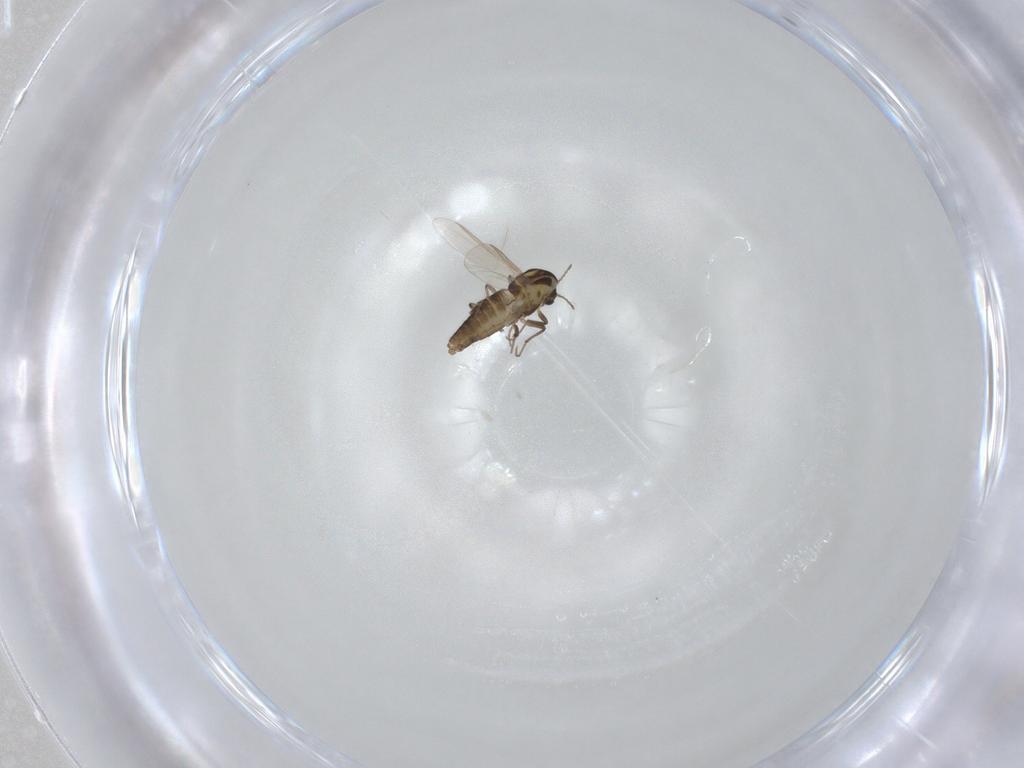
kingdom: Animalia
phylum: Arthropoda
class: Insecta
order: Diptera
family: Chironomidae
